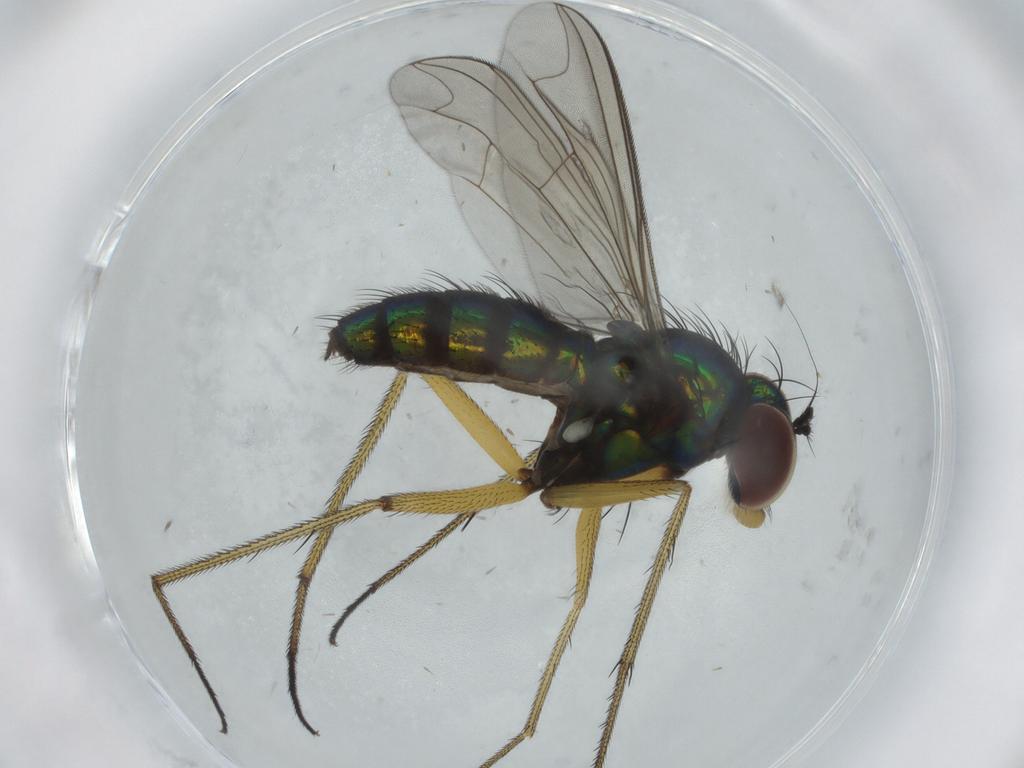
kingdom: Animalia
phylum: Arthropoda
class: Insecta
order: Diptera
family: Dolichopodidae
